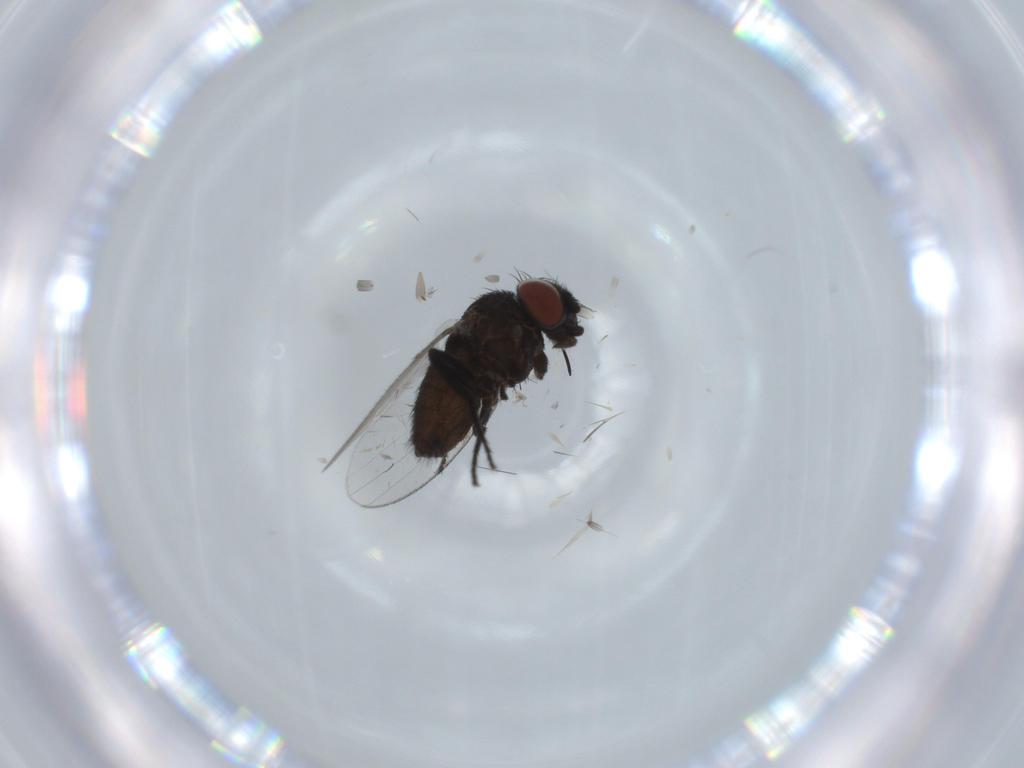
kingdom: Animalia
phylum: Arthropoda
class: Insecta
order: Diptera
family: Milichiidae
